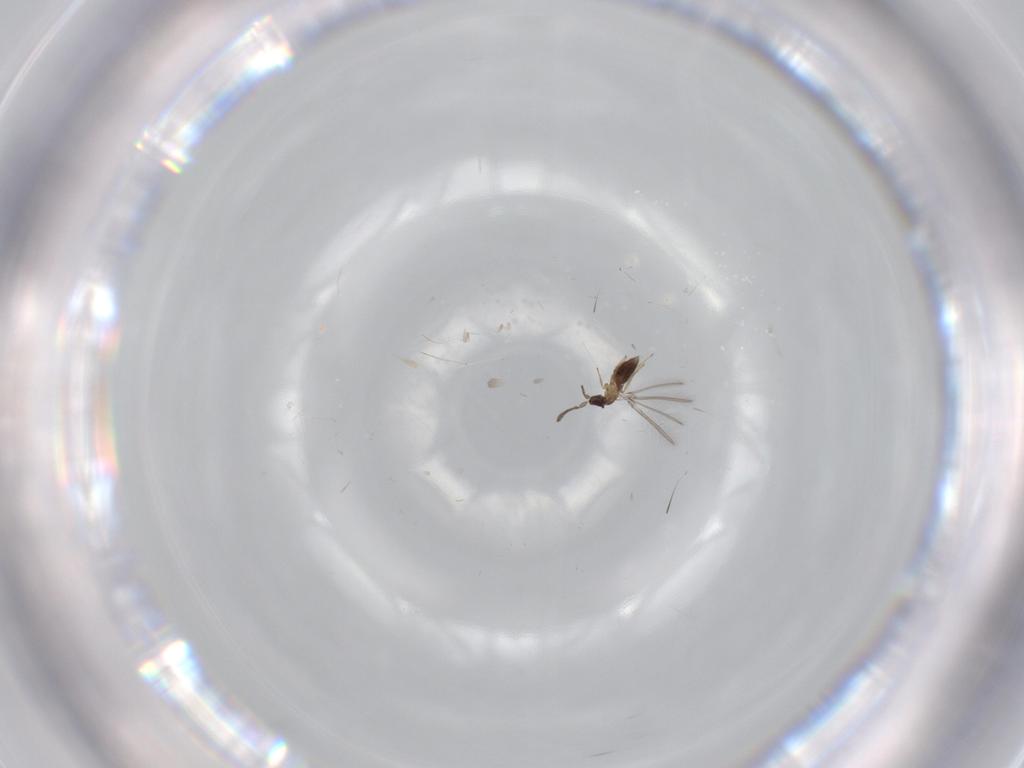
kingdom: Animalia
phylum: Arthropoda
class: Insecta
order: Hymenoptera
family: Mymaridae
